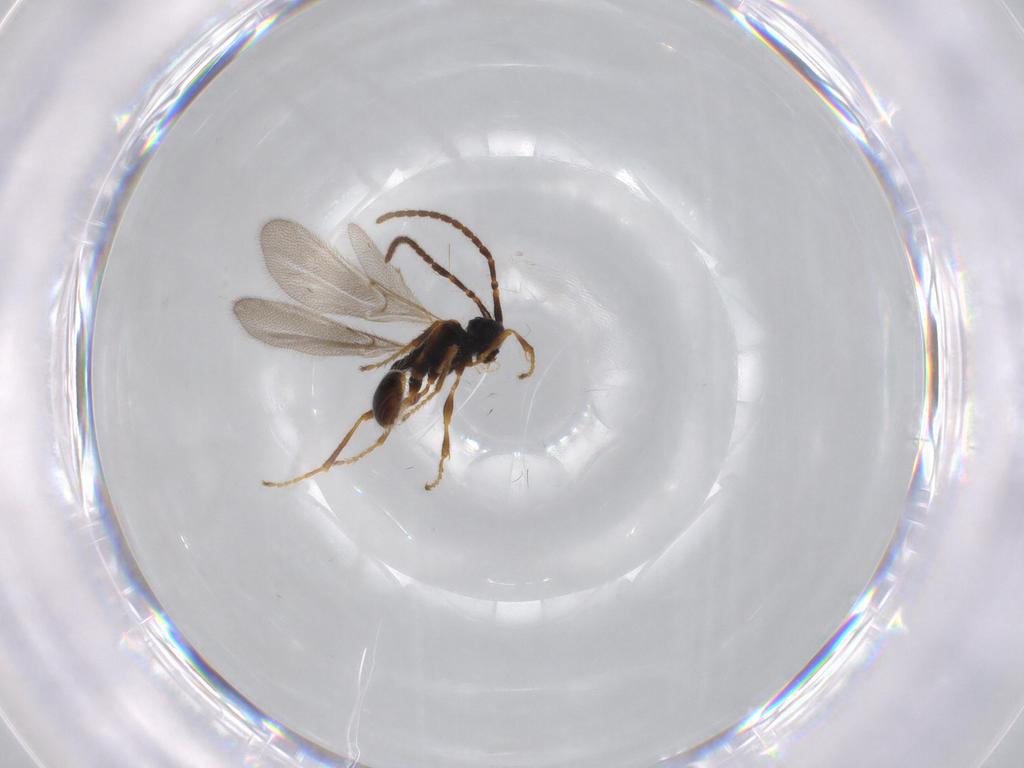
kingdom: Animalia
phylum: Arthropoda
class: Insecta
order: Hymenoptera
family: Diapriidae
